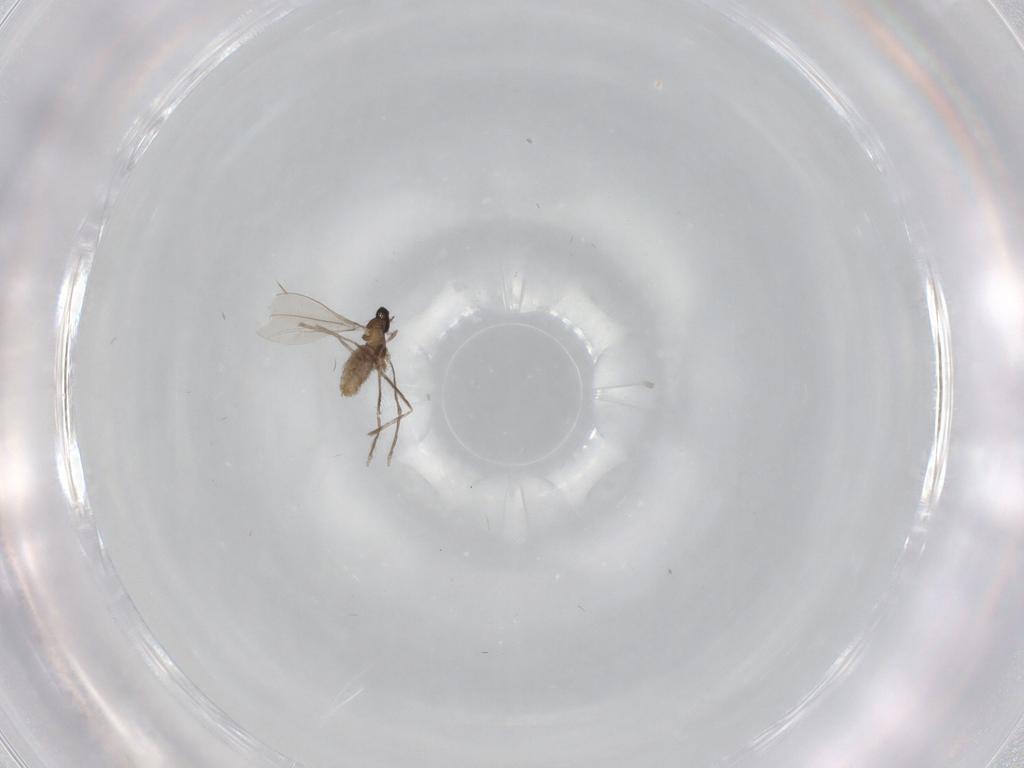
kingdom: Animalia
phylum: Arthropoda
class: Insecta
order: Diptera
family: Cecidomyiidae
